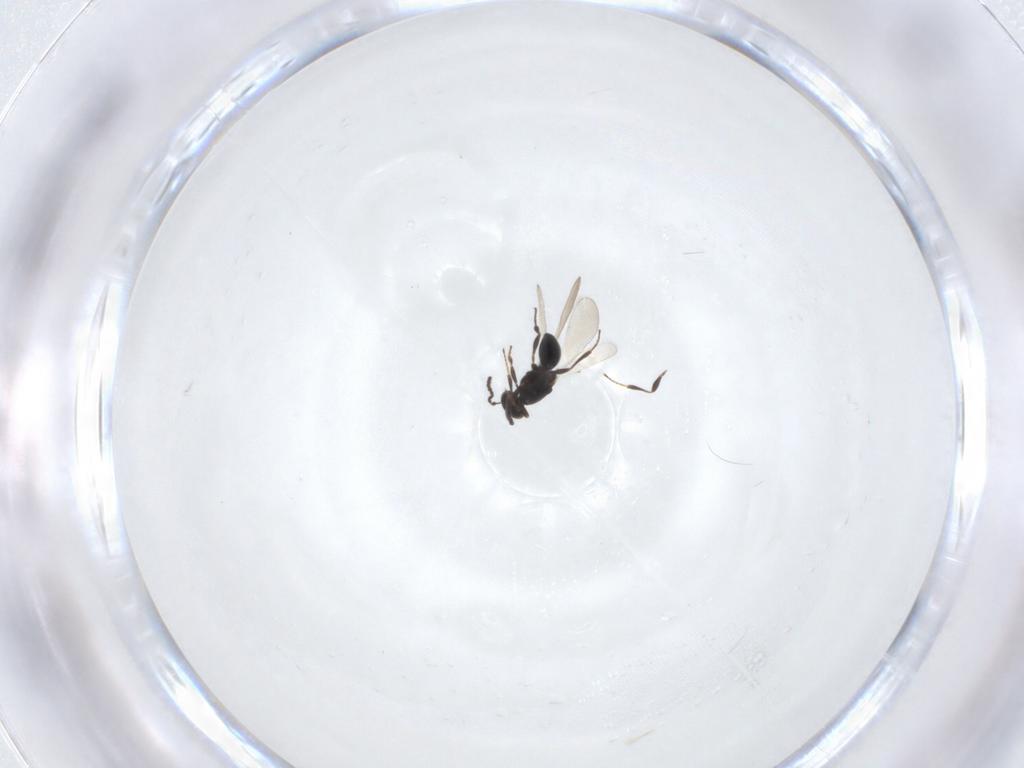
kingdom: Animalia
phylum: Arthropoda
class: Insecta
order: Hymenoptera
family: Platygastridae
